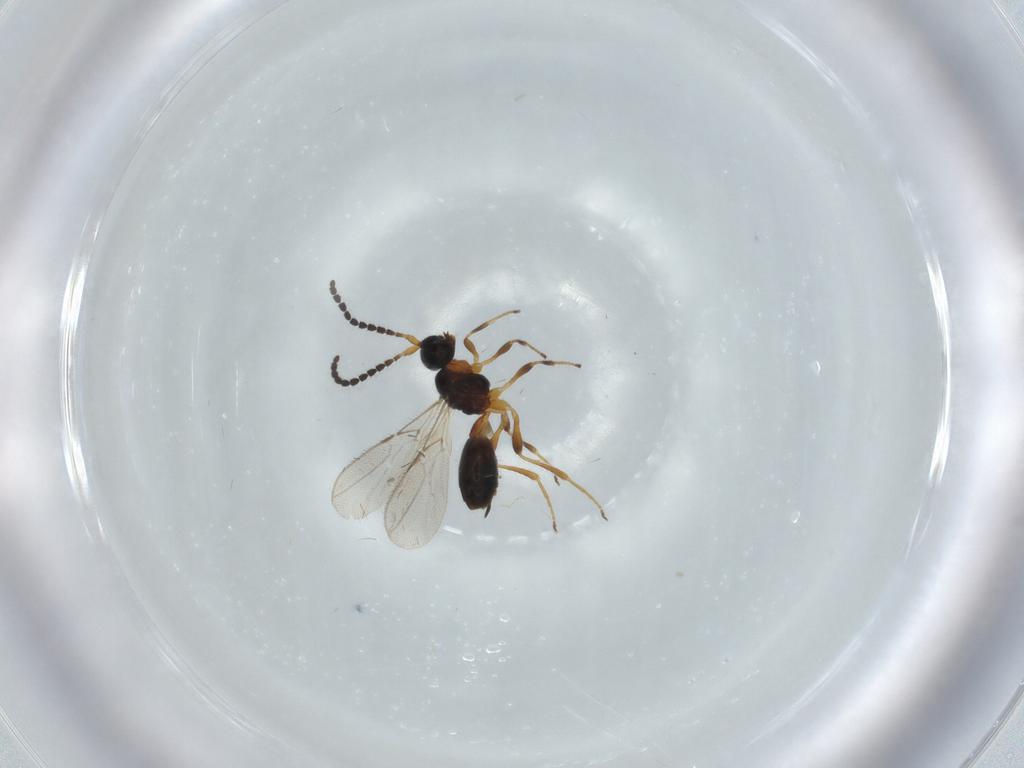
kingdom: Animalia
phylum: Arthropoda
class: Insecta
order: Hymenoptera
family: Braconidae
